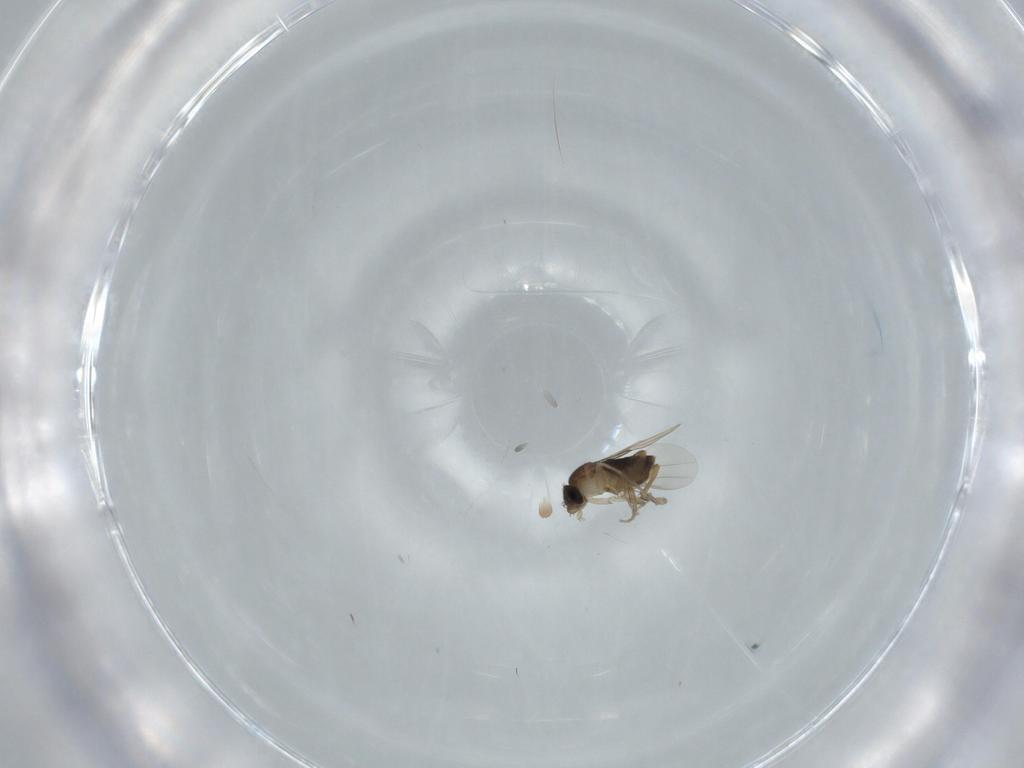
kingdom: Animalia
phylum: Arthropoda
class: Insecta
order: Diptera
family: Phoridae
